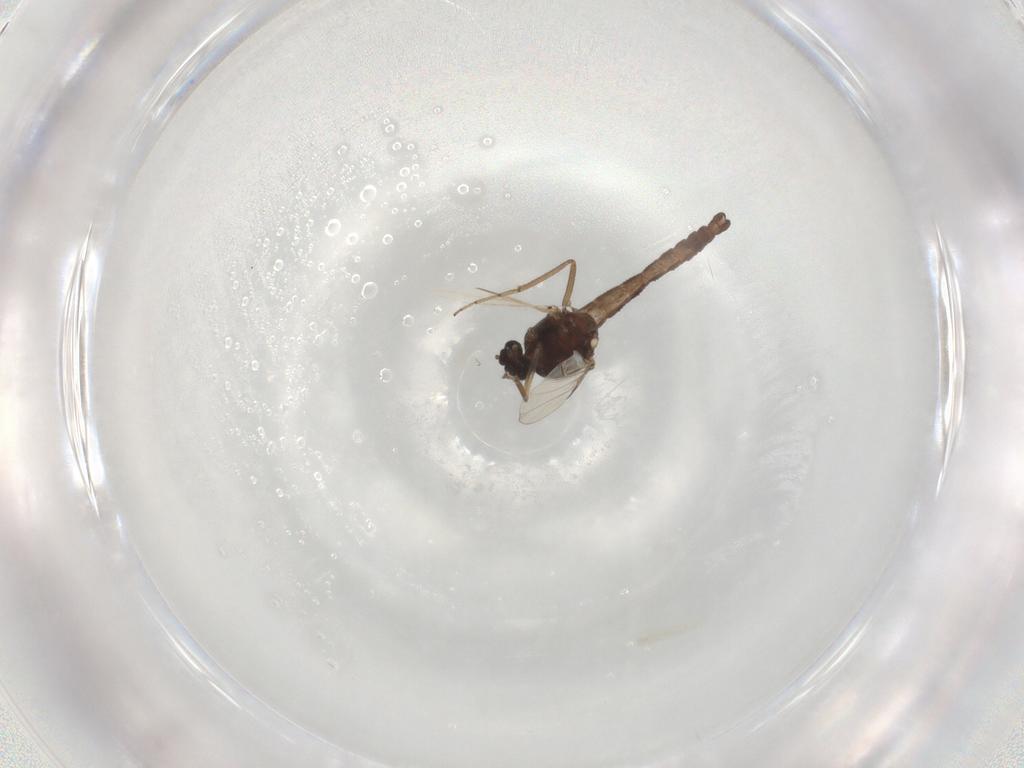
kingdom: Animalia
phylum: Arthropoda
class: Insecta
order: Diptera
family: Ceratopogonidae
